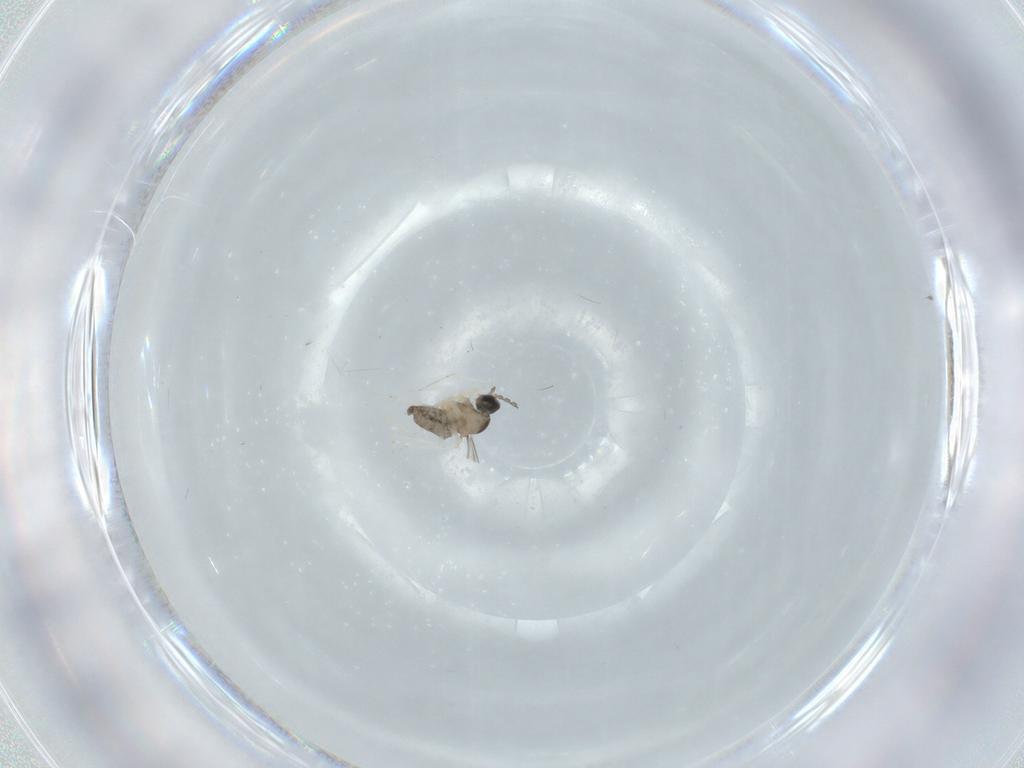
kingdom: Animalia
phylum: Arthropoda
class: Insecta
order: Diptera
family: Cecidomyiidae
